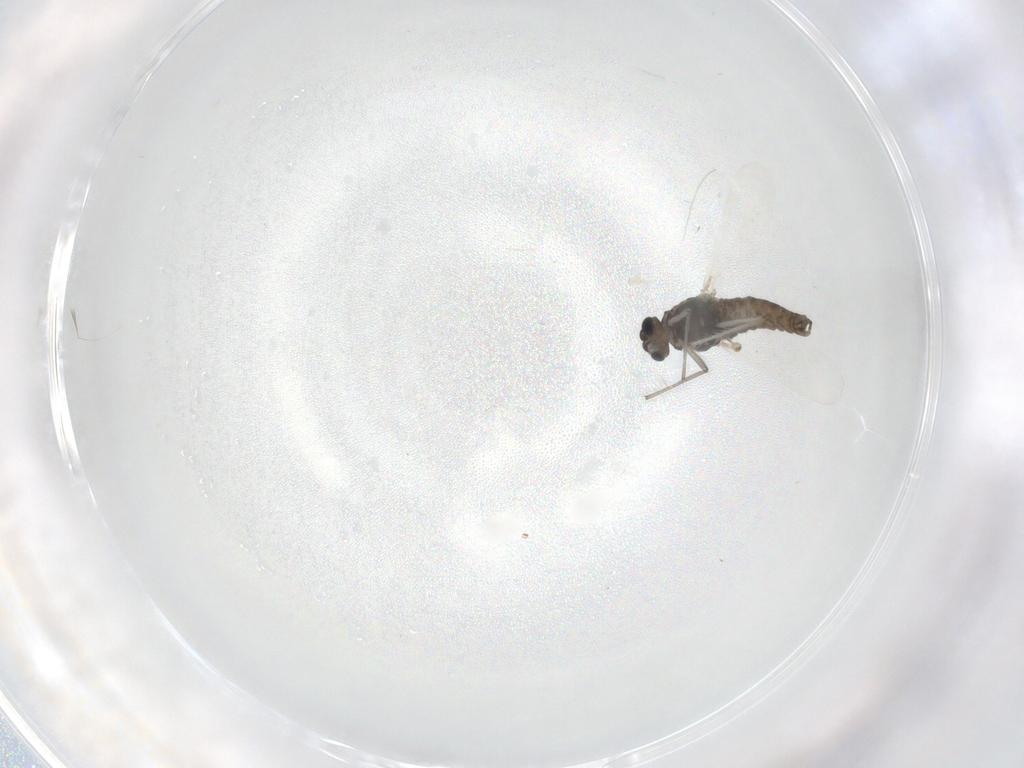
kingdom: Animalia
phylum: Arthropoda
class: Insecta
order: Diptera
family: Chironomidae
